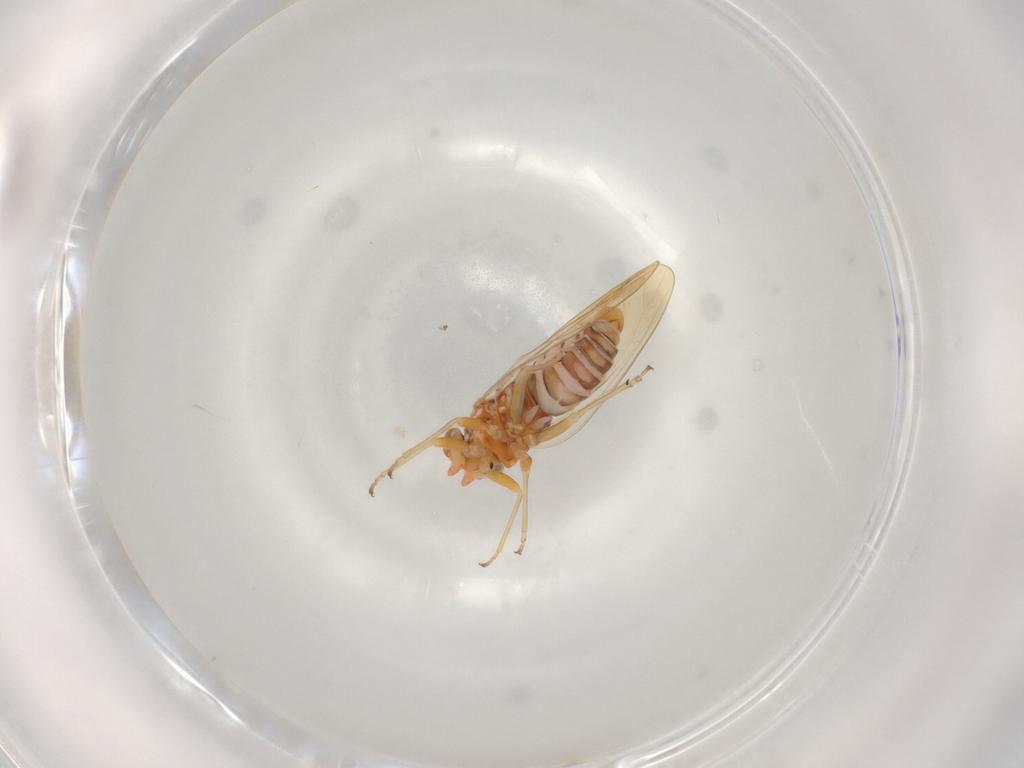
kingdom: Animalia
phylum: Arthropoda
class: Insecta
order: Hemiptera
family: Psyllidae
